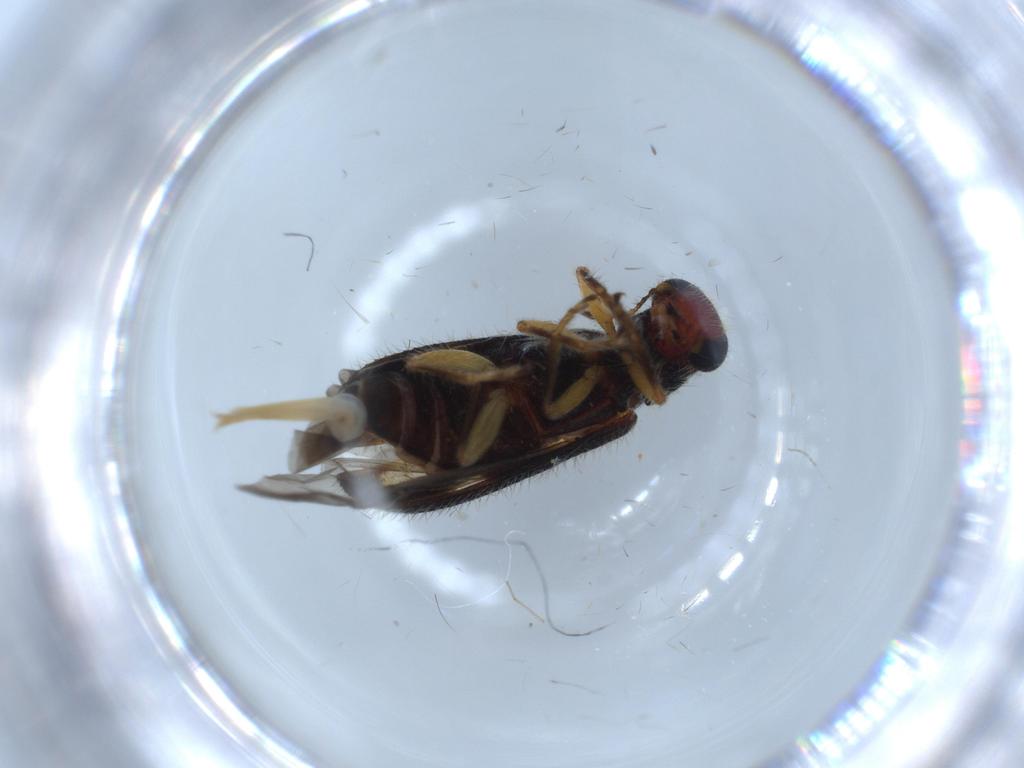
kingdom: Animalia
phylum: Arthropoda
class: Insecta
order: Coleoptera
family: Cleridae
